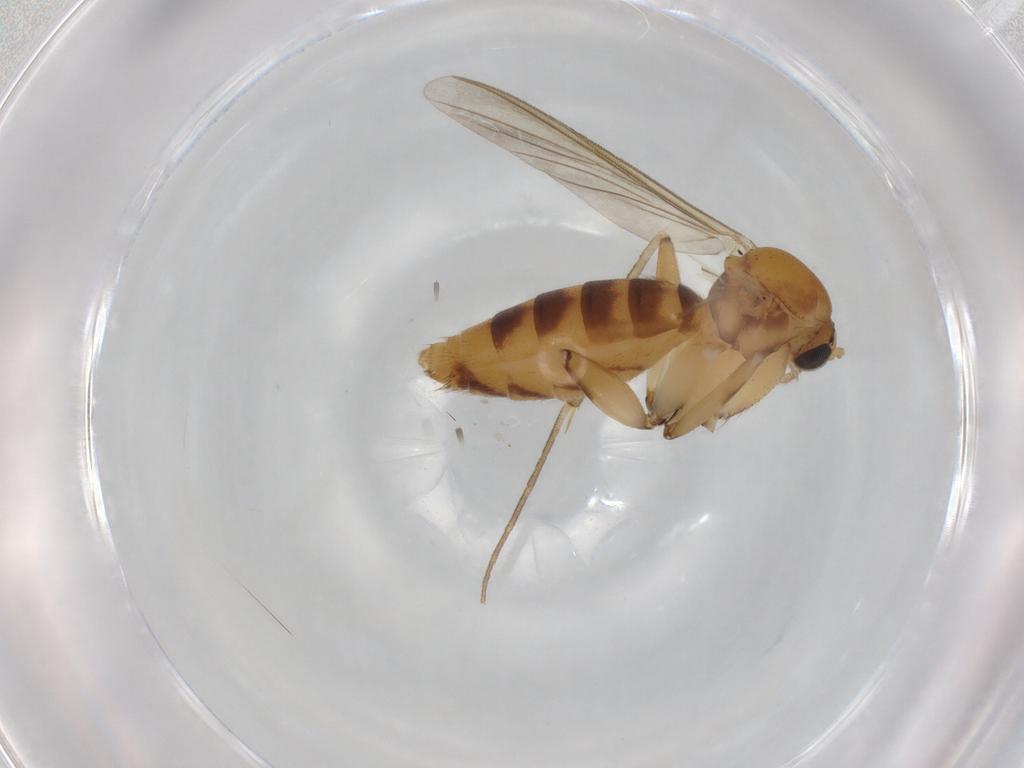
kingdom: Animalia
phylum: Arthropoda
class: Insecta
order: Diptera
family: Mycetophilidae
